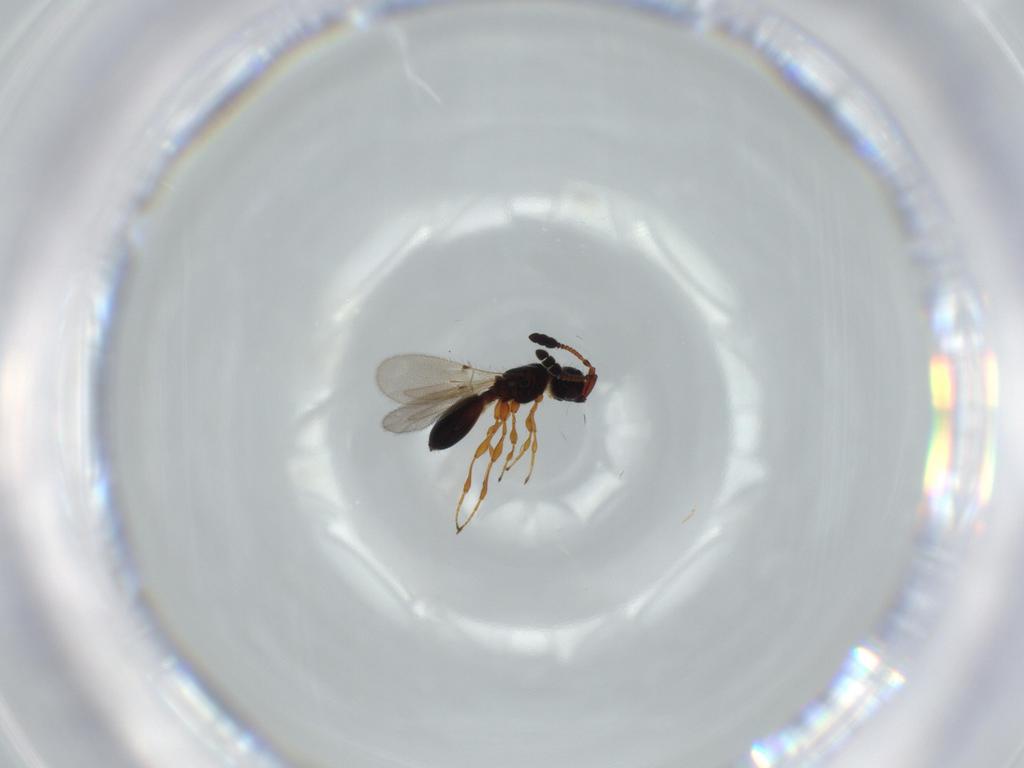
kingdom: Animalia
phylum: Arthropoda
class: Insecta
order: Hymenoptera
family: Diapriidae
